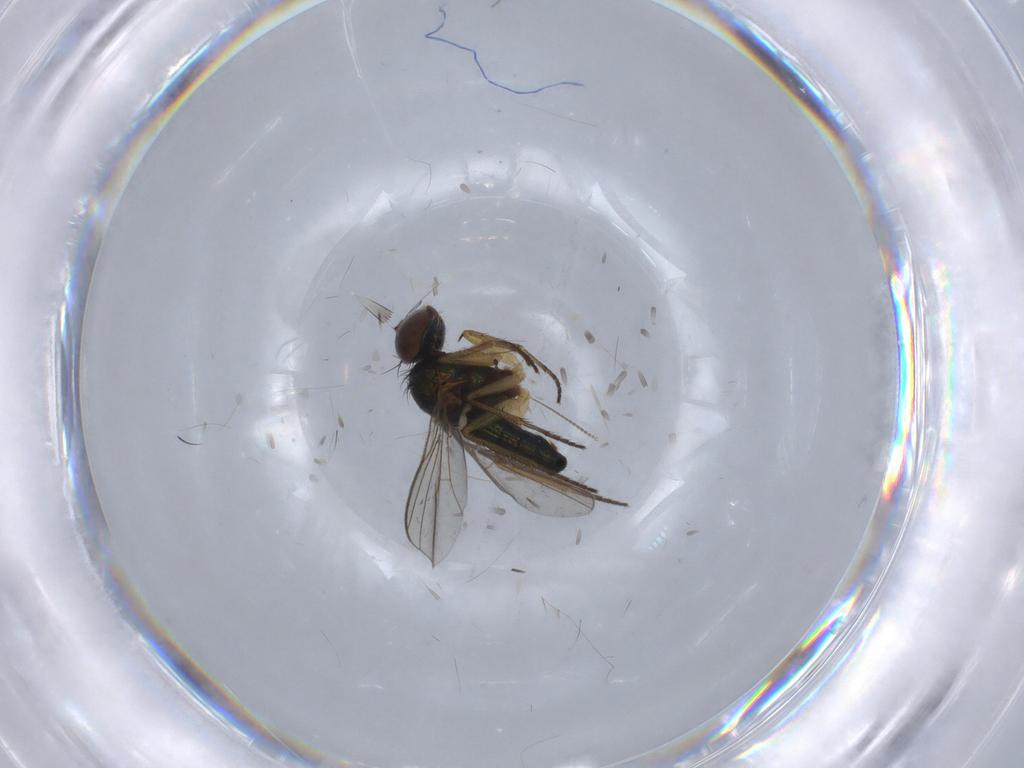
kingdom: Animalia
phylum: Arthropoda
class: Insecta
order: Diptera
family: Dolichopodidae
